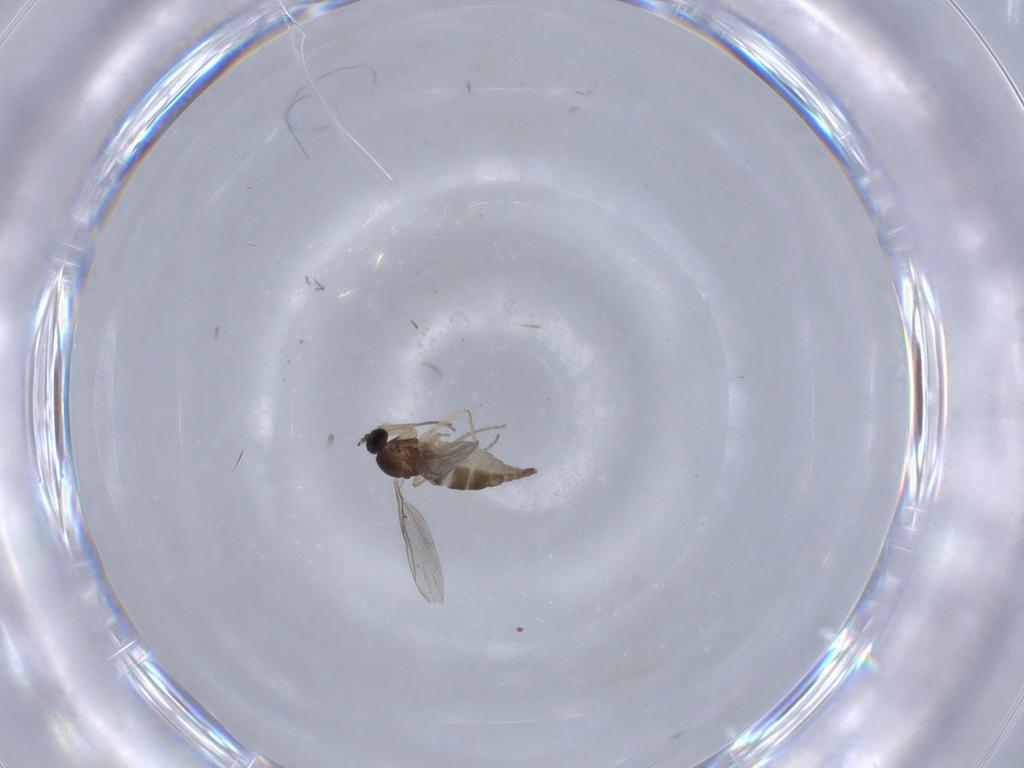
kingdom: Animalia
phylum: Arthropoda
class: Insecta
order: Diptera
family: Sciaridae
